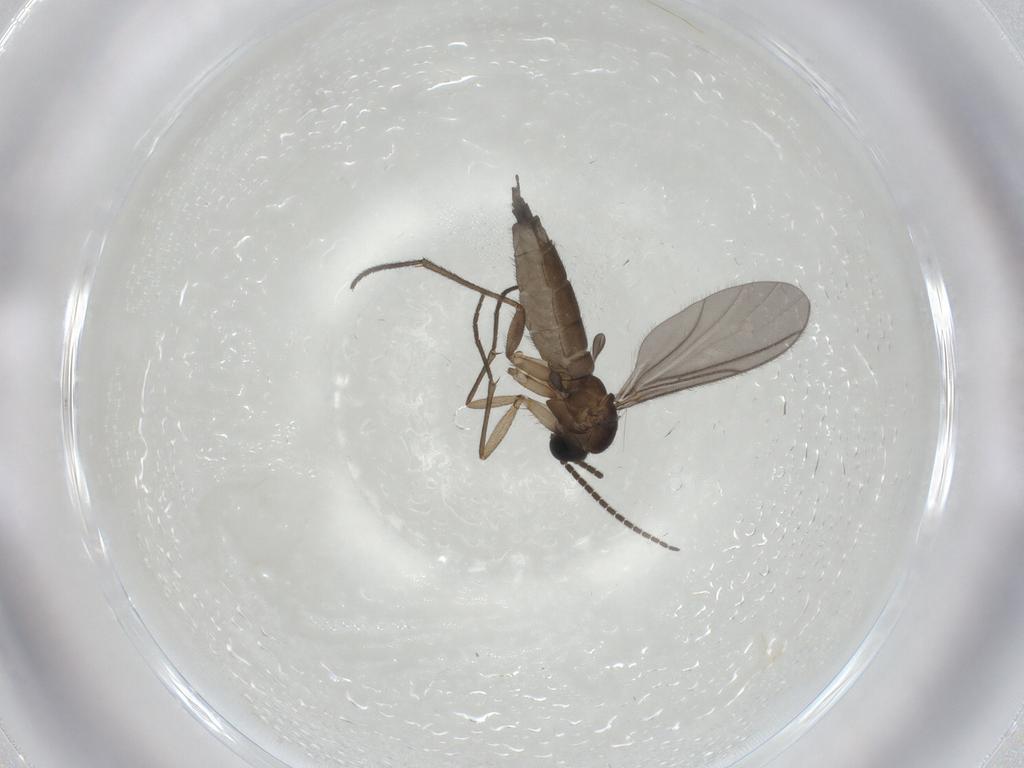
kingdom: Animalia
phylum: Arthropoda
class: Insecta
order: Diptera
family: Sciaridae
